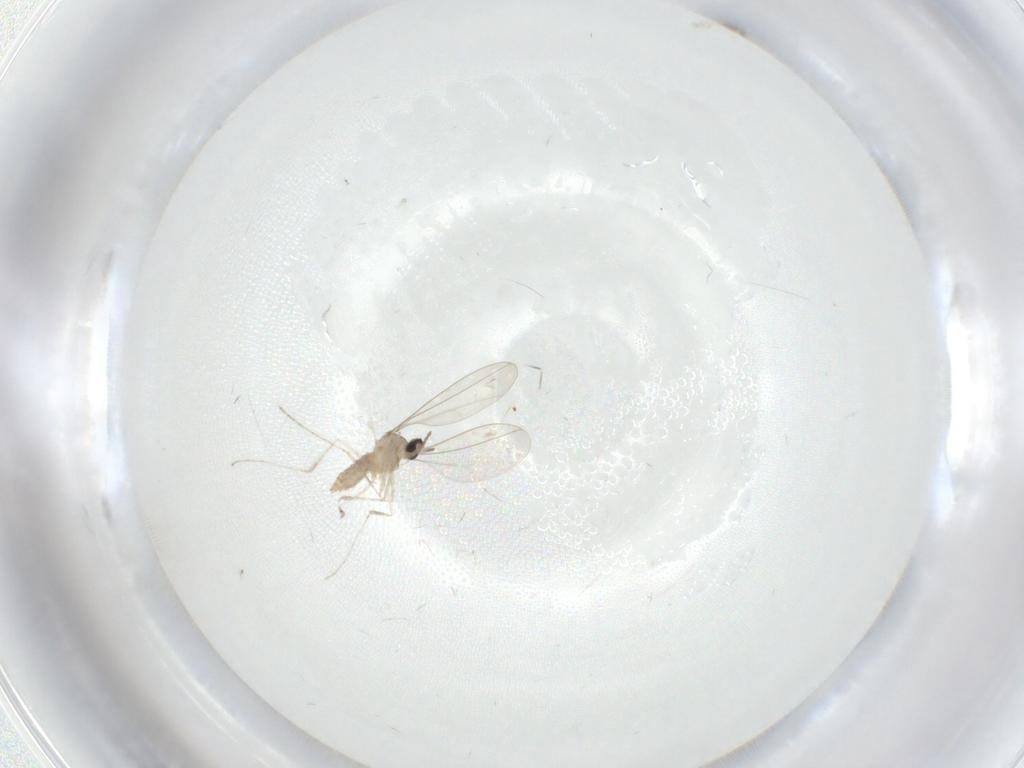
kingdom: Animalia
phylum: Arthropoda
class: Insecta
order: Diptera
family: Cecidomyiidae
